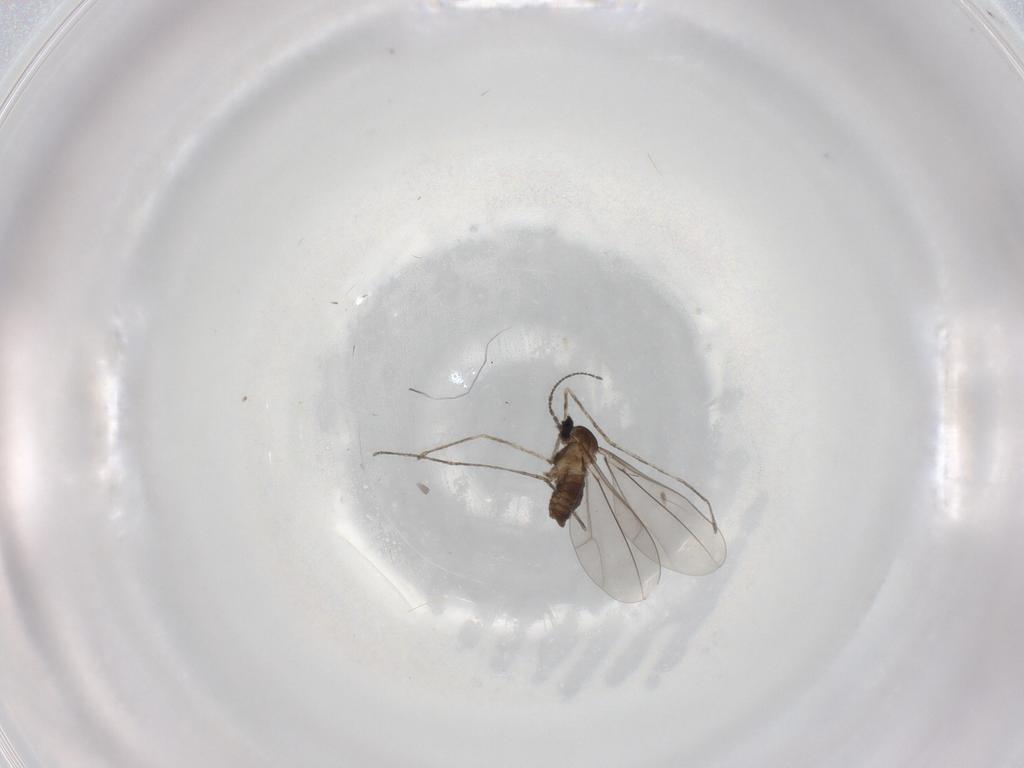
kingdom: Animalia
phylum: Arthropoda
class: Insecta
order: Diptera
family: Cecidomyiidae
